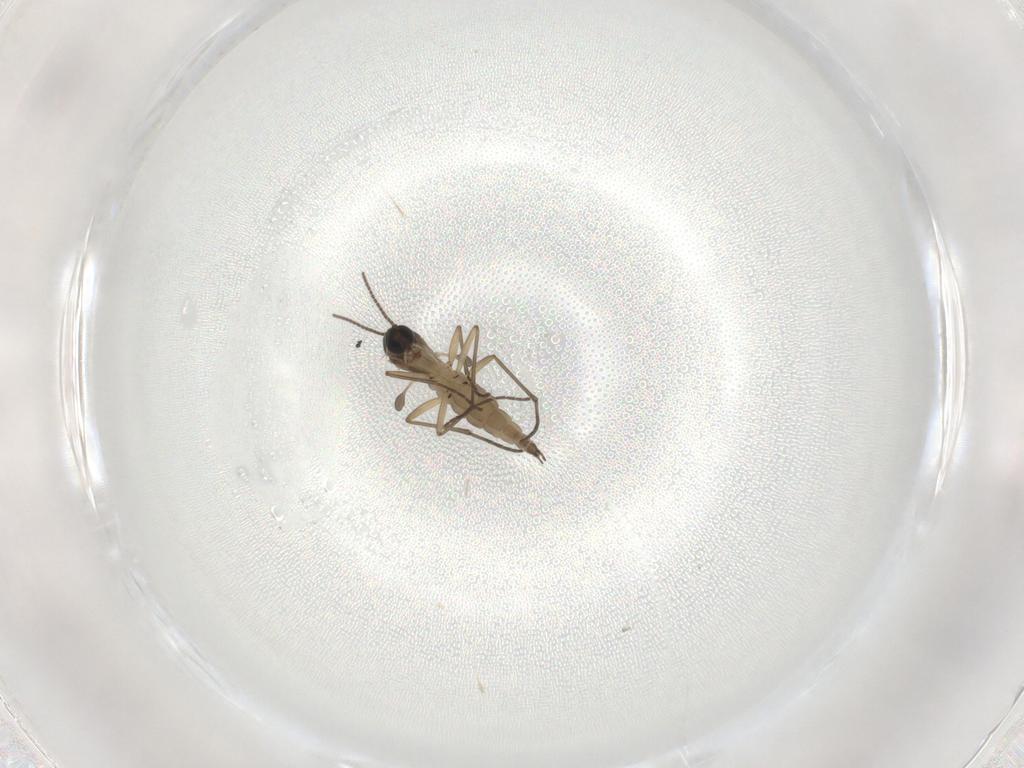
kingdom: Animalia
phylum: Arthropoda
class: Insecta
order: Diptera
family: Sciaridae
